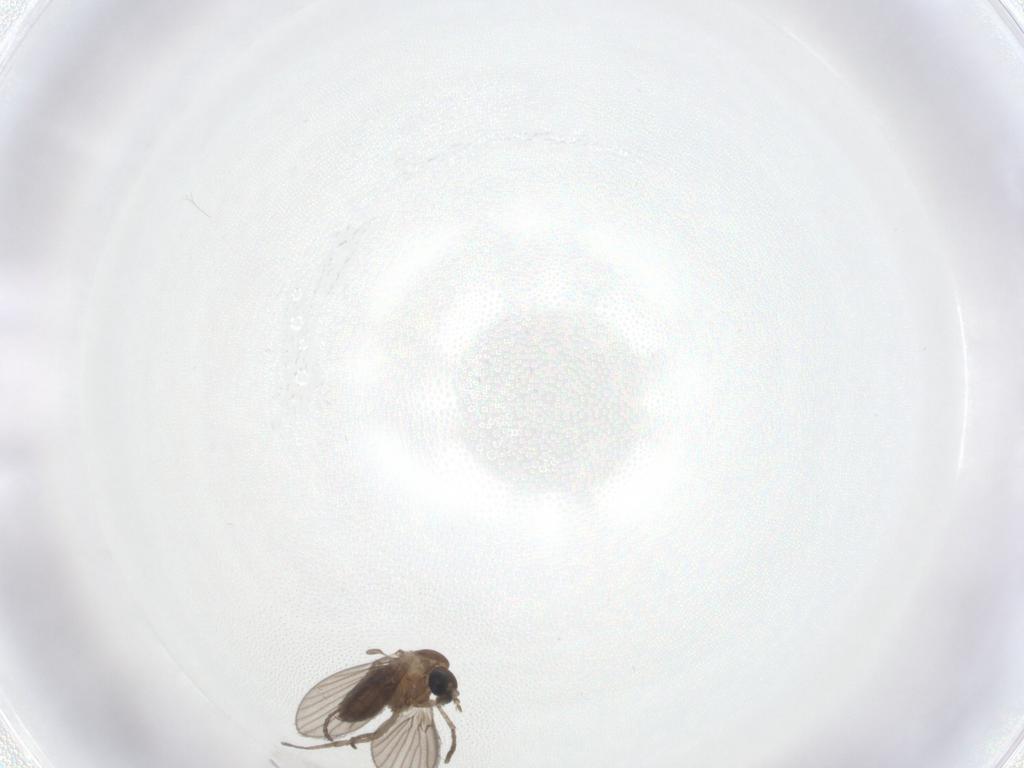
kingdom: Animalia
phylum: Arthropoda
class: Insecta
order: Diptera
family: Psychodidae
